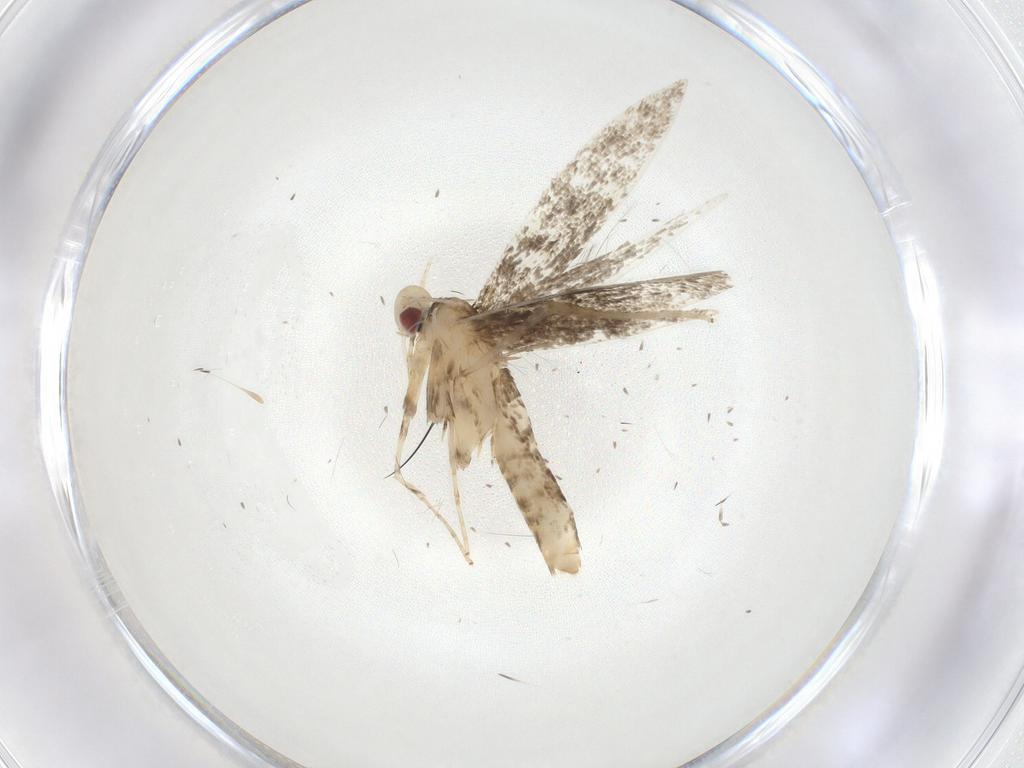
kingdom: Animalia
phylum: Arthropoda
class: Insecta
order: Lepidoptera
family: Gracillariidae
